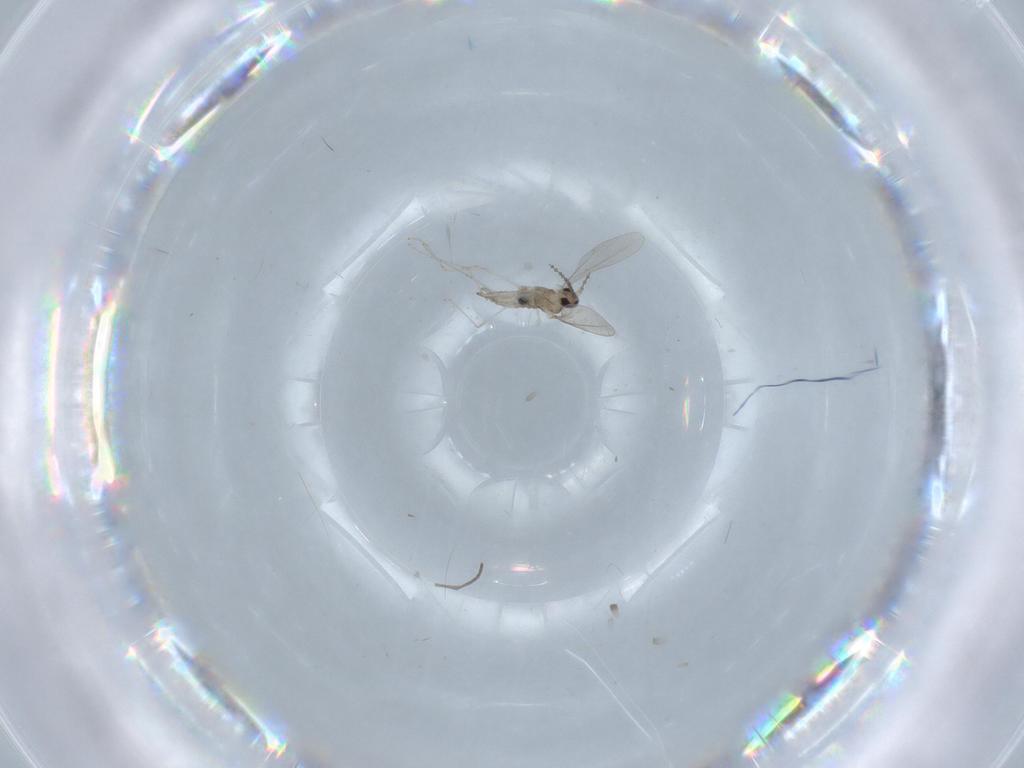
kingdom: Animalia
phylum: Arthropoda
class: Insecta
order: Diptera
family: Cecidomyiidae
